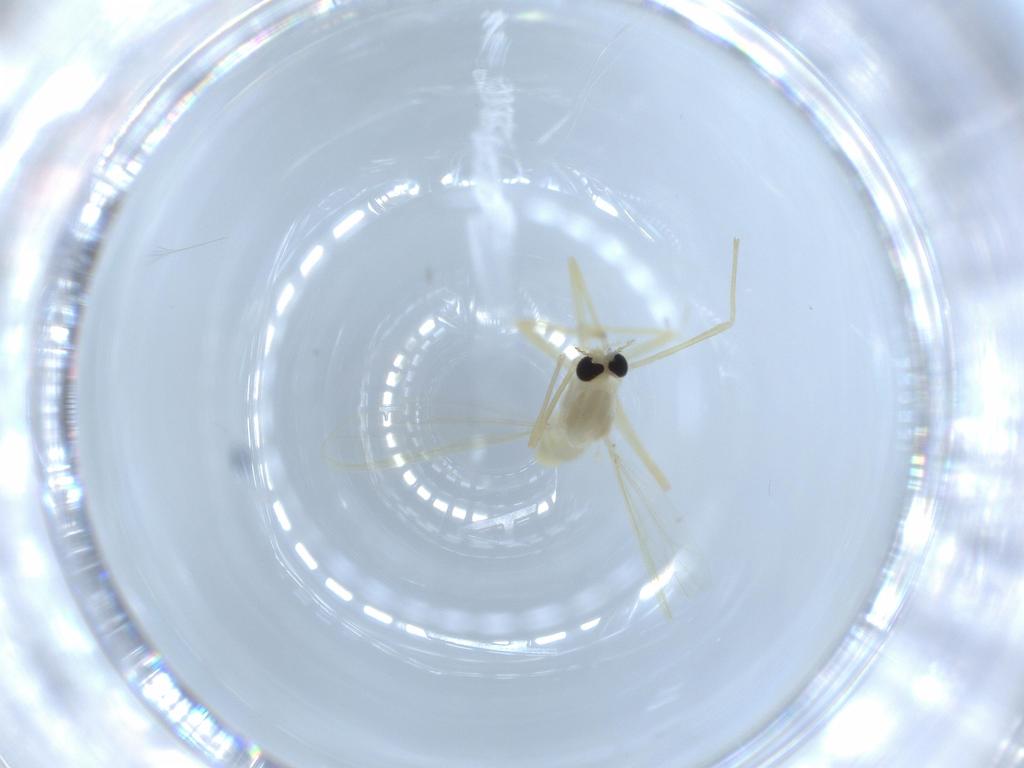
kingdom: Animalia
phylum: Arthropoda
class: Insecta
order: Diptera
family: Chironomidae
